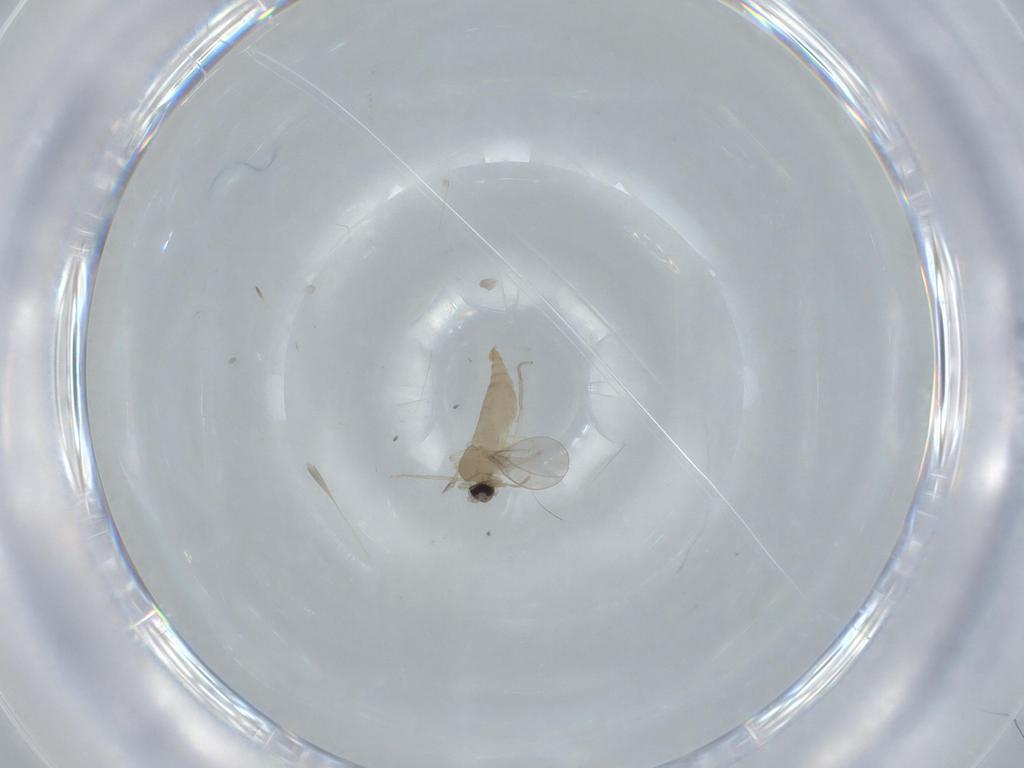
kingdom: Animalia
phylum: Arthropoda
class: Insecta
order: Diptera
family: Cecidomyiidae
